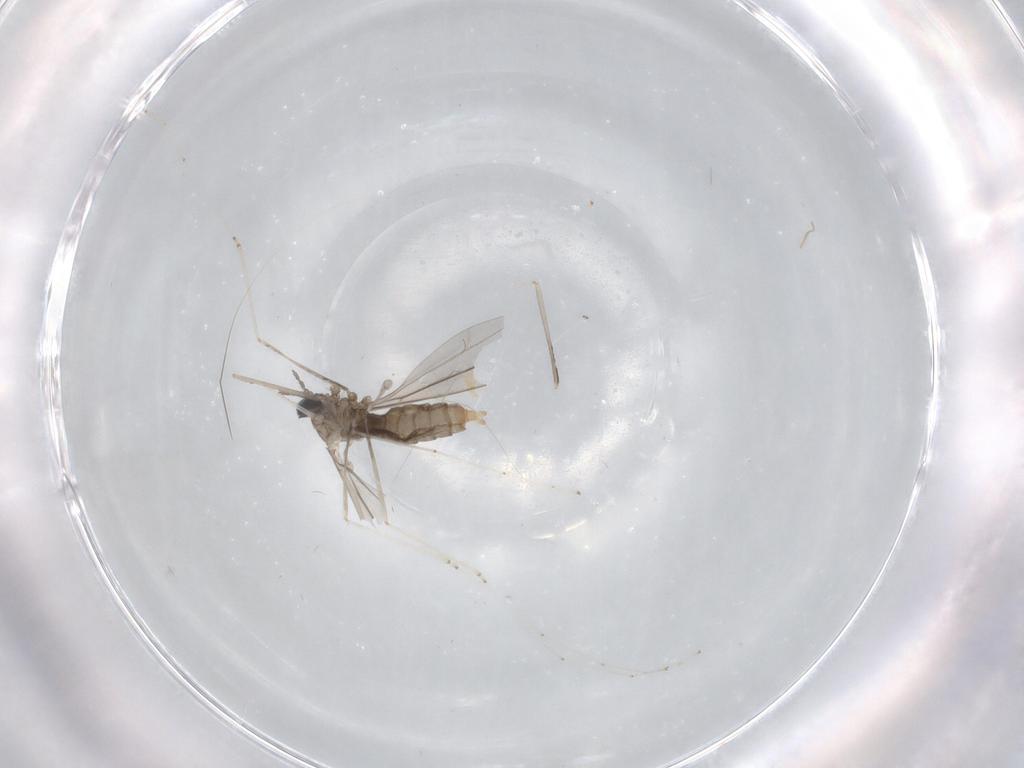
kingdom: Animalia
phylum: Arthropoda
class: Insecta
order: Diptera
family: Cecidomyiidae
